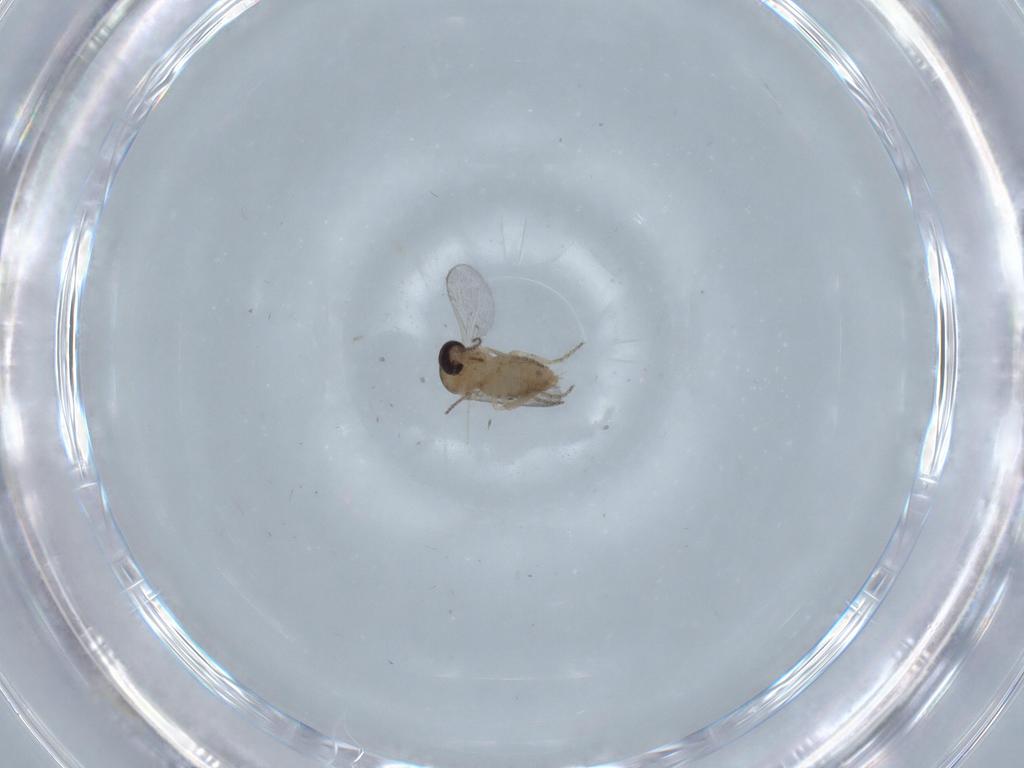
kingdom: Animalia
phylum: Arthropoda
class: Insecta
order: Diptera
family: Ceratopogonidae
